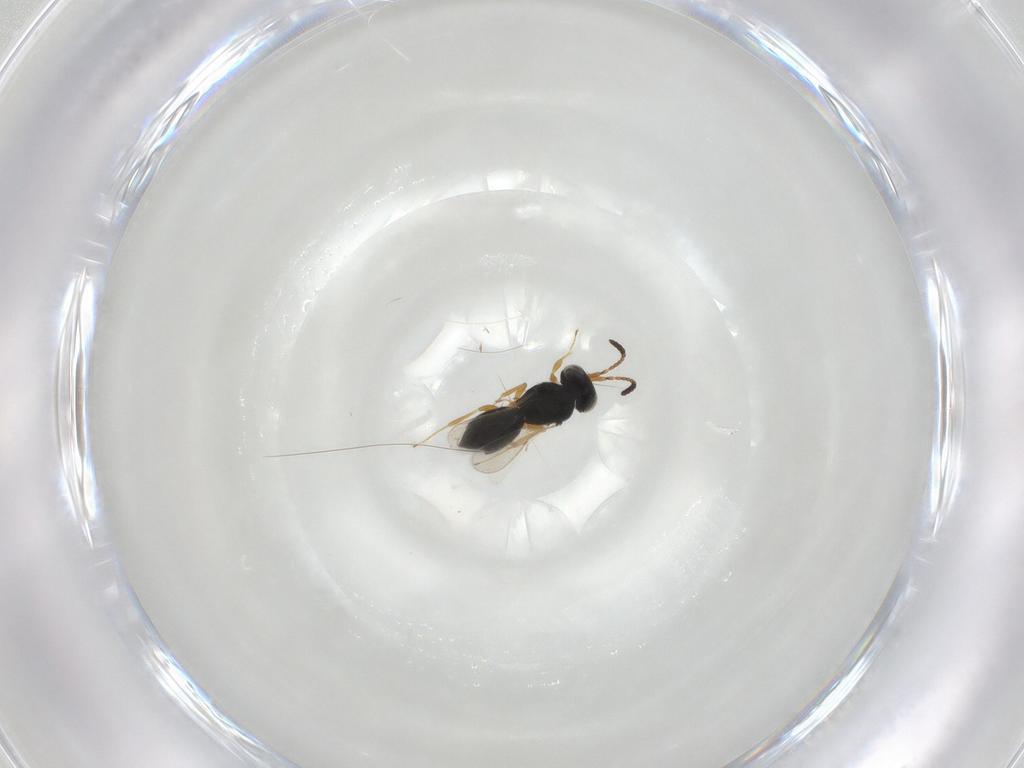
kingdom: Animalia
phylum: Arthropoda
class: Insecta
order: Hymenoptera
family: Scelionidae
